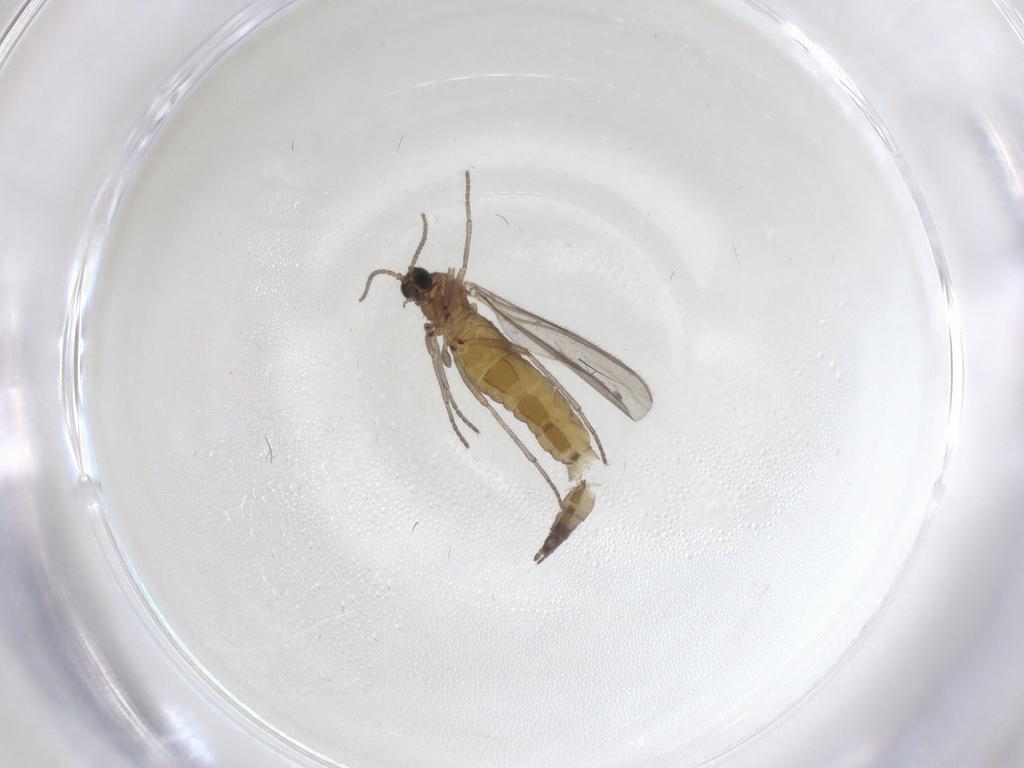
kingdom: Animalia
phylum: Arthropoda
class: Insecta
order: Diptera
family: Sciaridae
